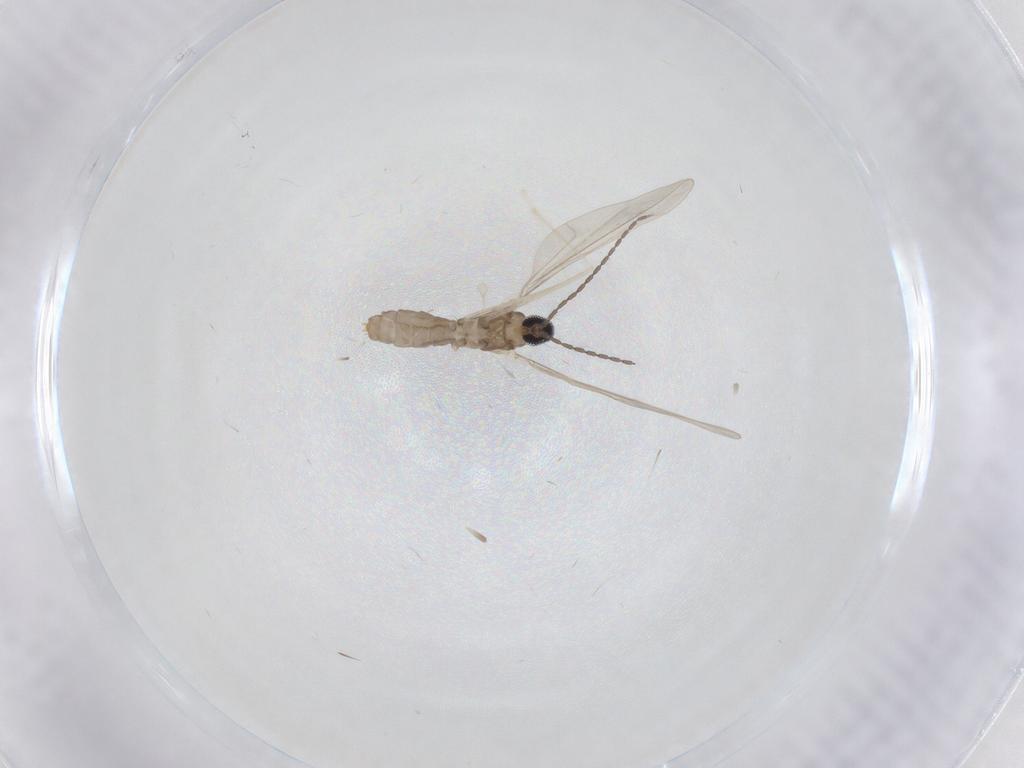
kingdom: Animalia
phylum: Arthropoda
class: Insecta
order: Diptera
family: Cecidomyiidae
